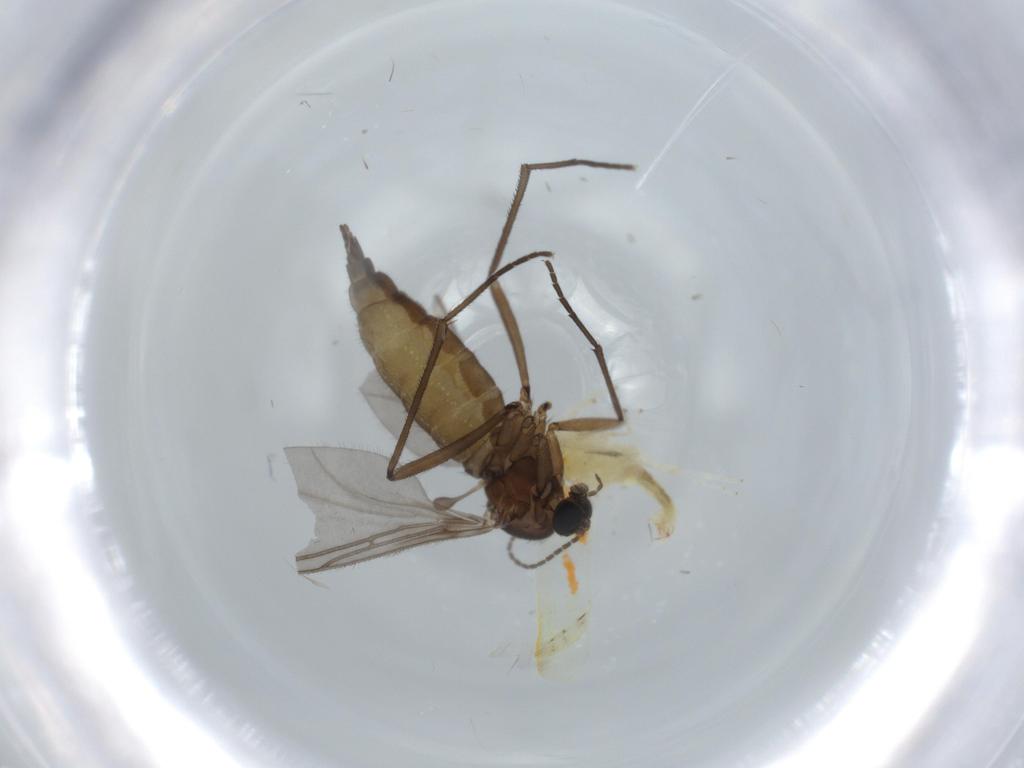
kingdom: Animalia
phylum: Arthropoda
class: Insecta
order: Diptera
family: Sciaridae
